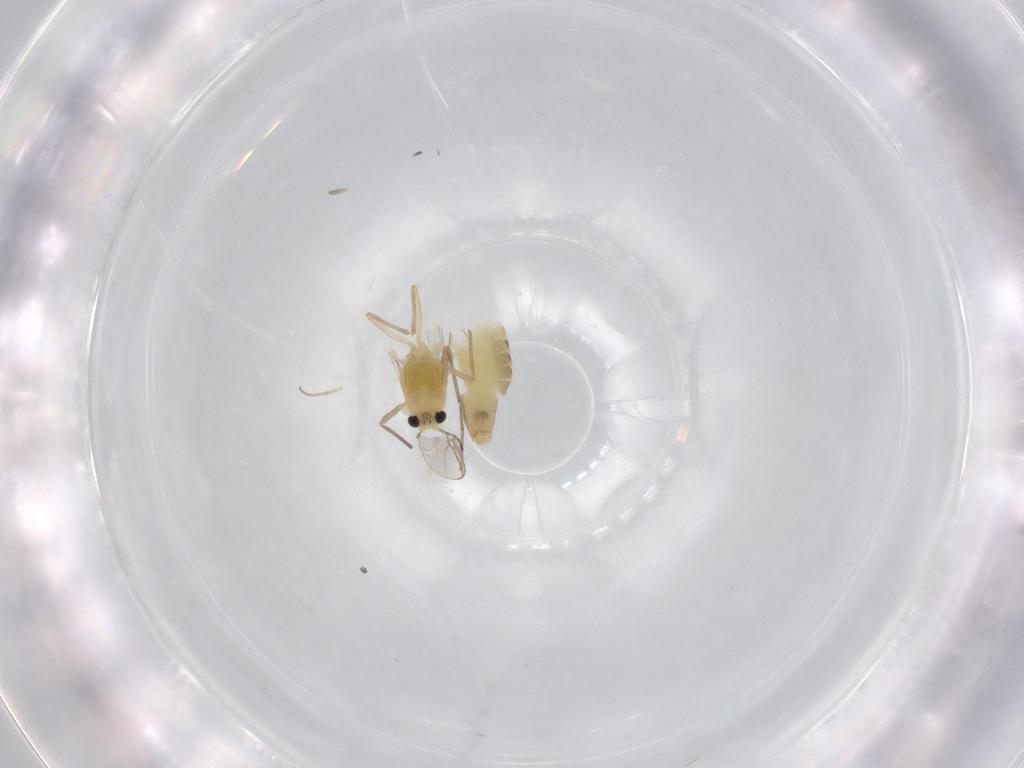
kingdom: Animalia
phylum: Arthropoda
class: Insecta
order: Diptera
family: Chironomidae
